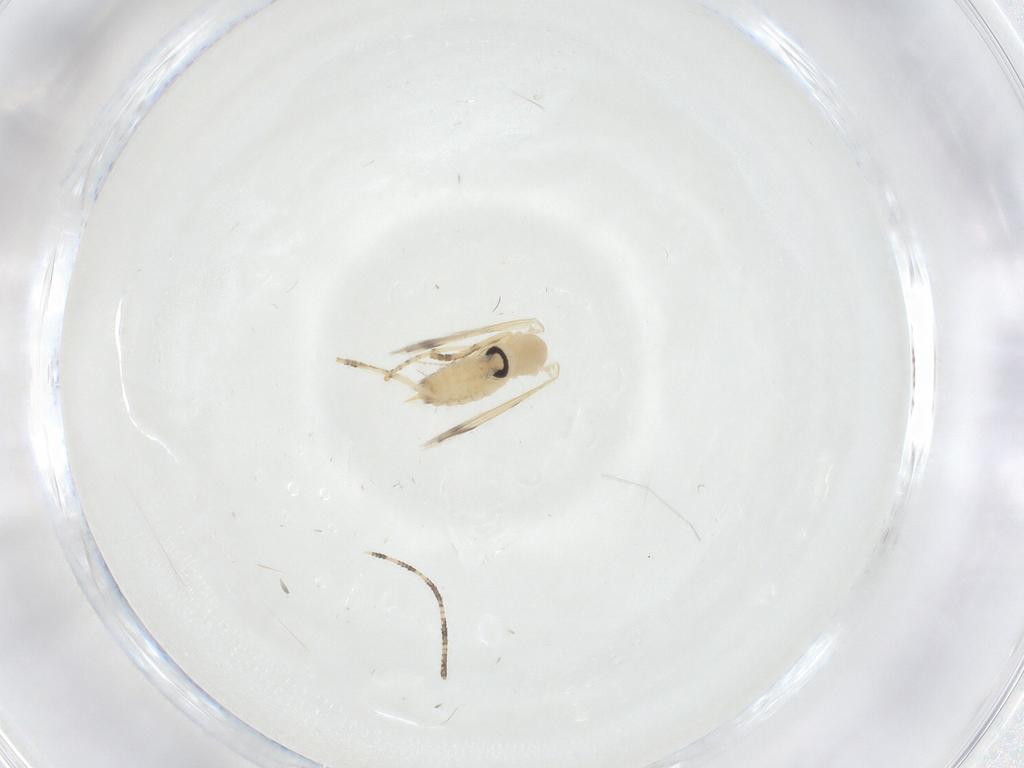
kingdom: Animalia
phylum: Arthropoda
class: Insecta
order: Diptera
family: Psychodidae
